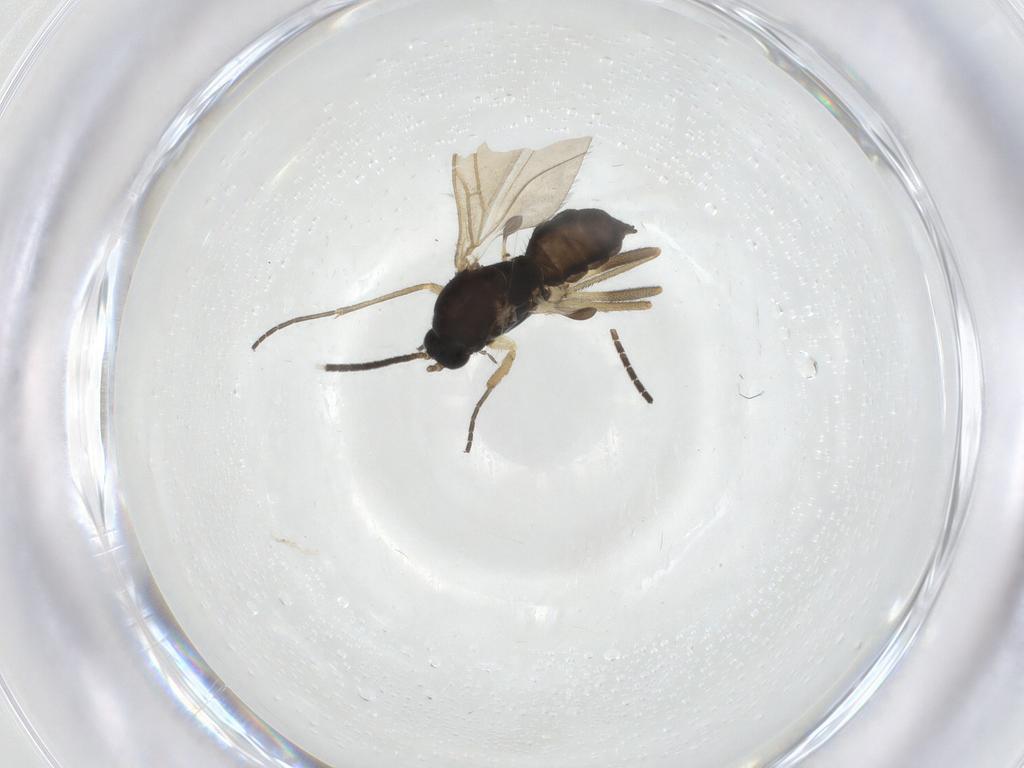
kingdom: Animalia
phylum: Arthropoda
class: Insecta
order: Diptera
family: Sciaridae
